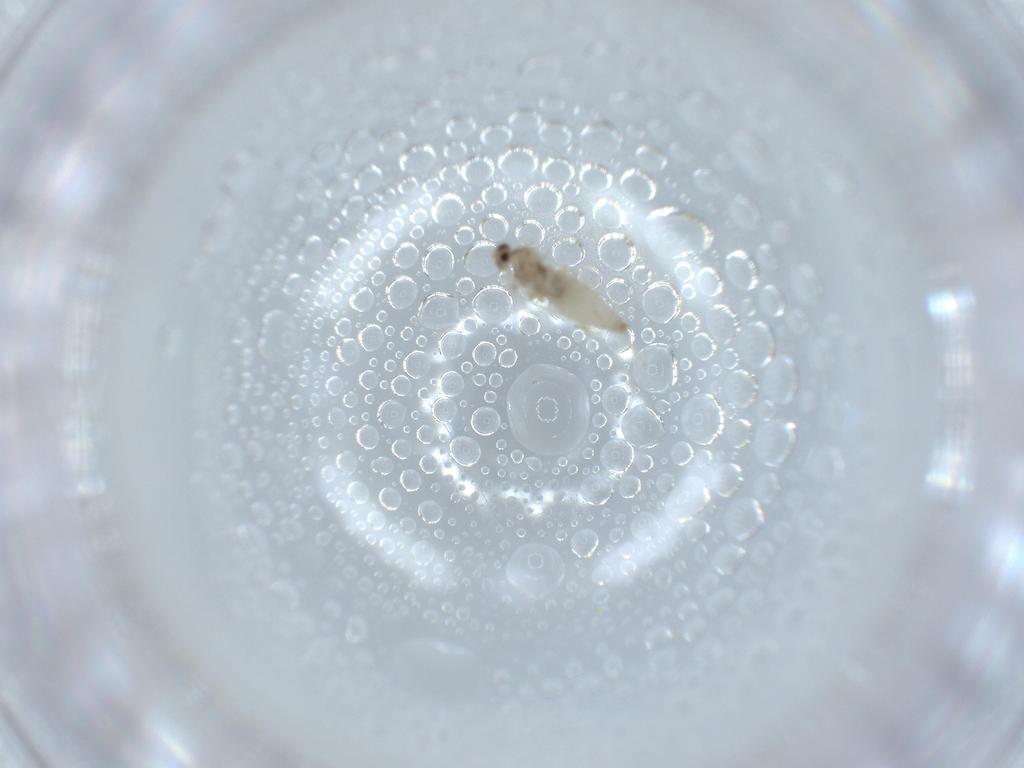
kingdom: Animalia
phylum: Arthropoda
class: Insecta
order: Diptera
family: Cecidomyiidae
